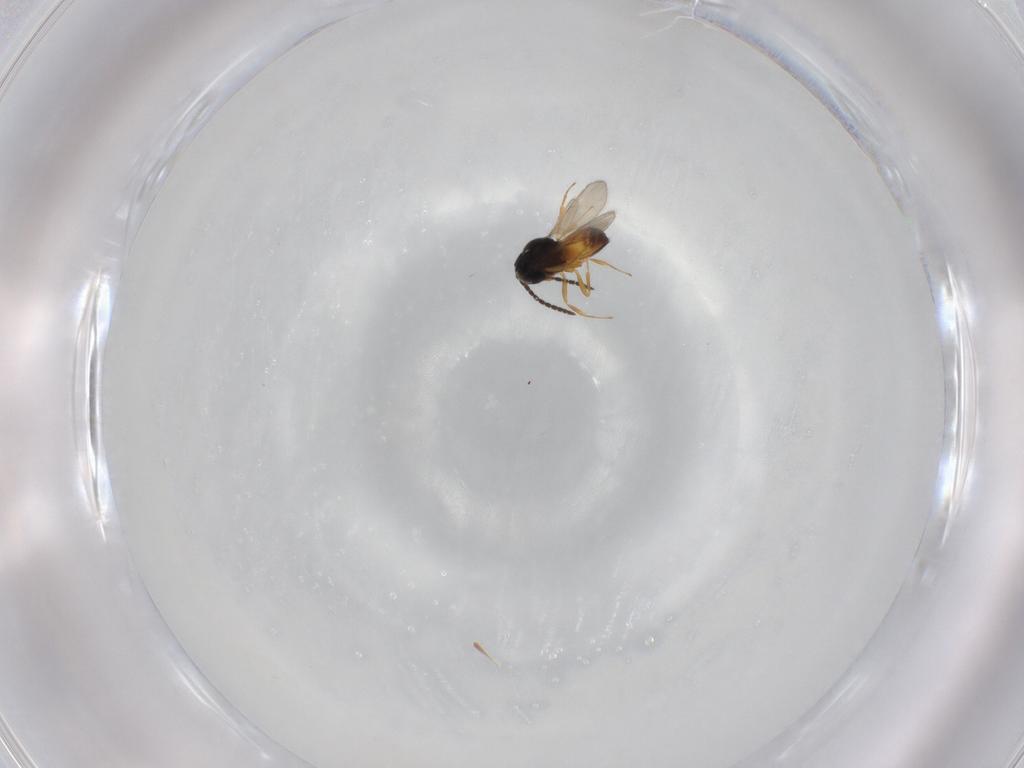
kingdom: Animalia
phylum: Arthropoda
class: Insecta
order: Hymenoptera
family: Scelionidae
